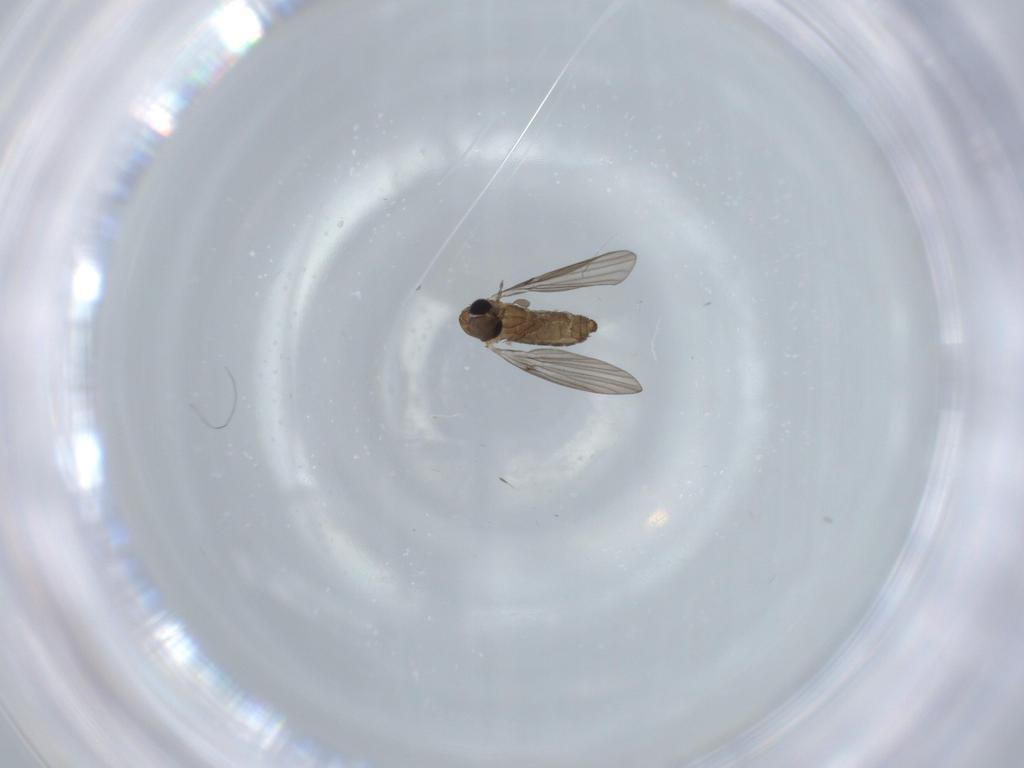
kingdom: Animalia
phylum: Arthropoda
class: Insecta
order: Diptera
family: Psychodidae
